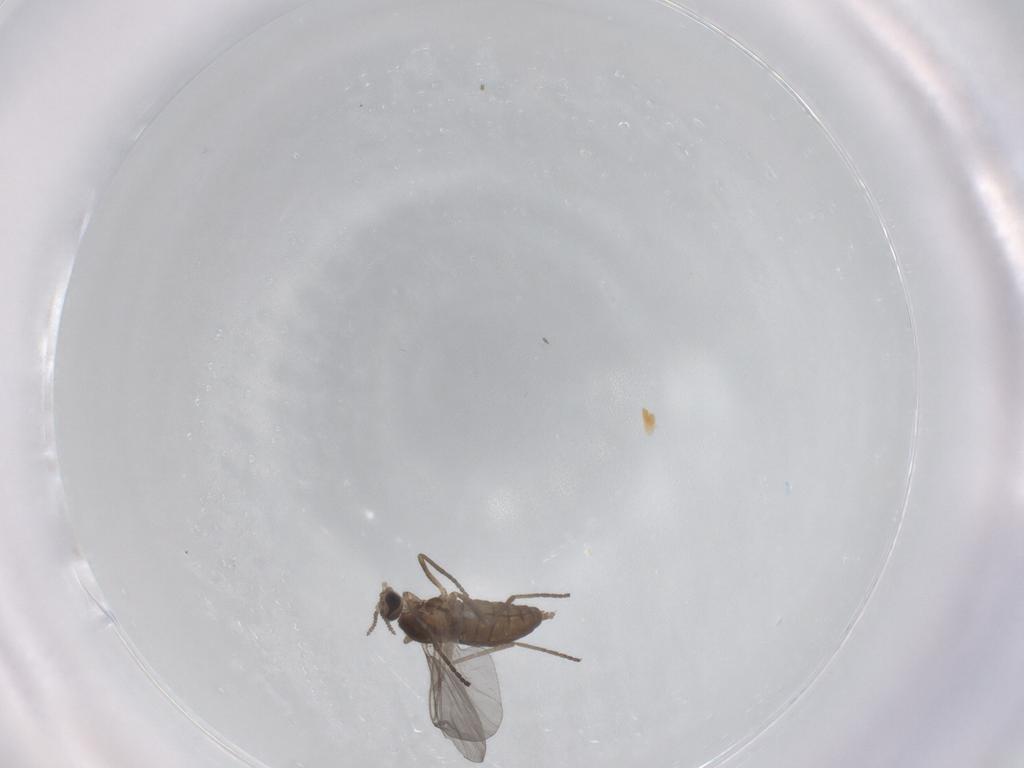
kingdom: Animalia
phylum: Arthropoda
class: Insecta
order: Diptera
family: Cecidomyiidae
